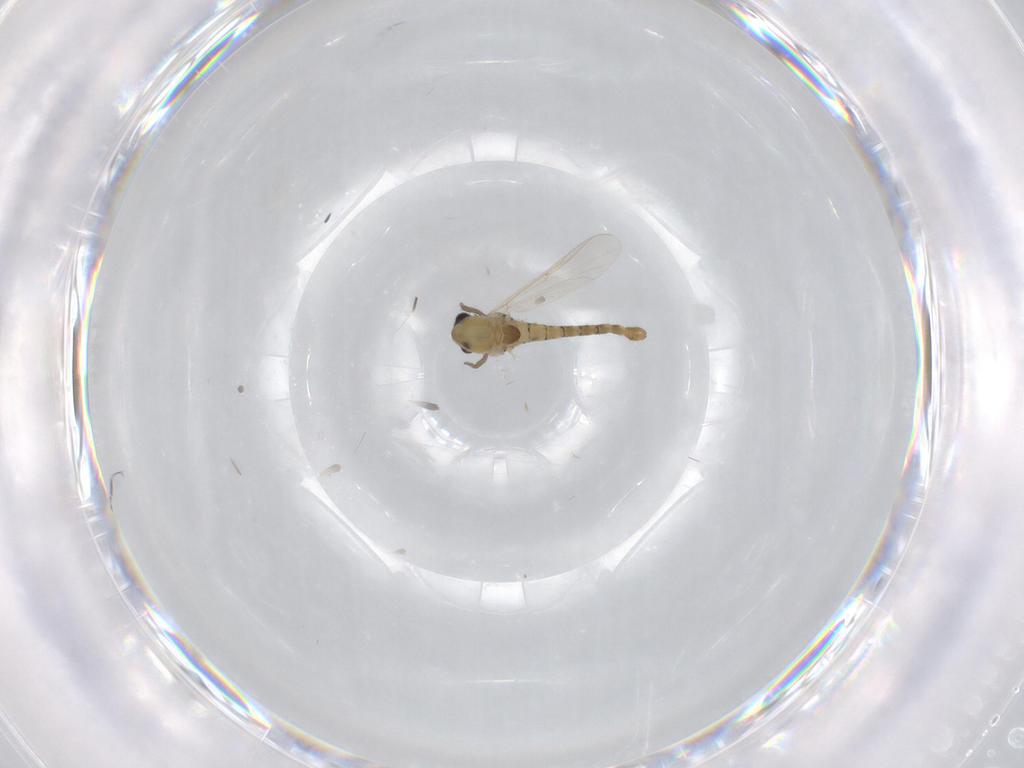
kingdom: Animalia
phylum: Arthropoda
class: Insecta
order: Diptera
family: Chironomidae
